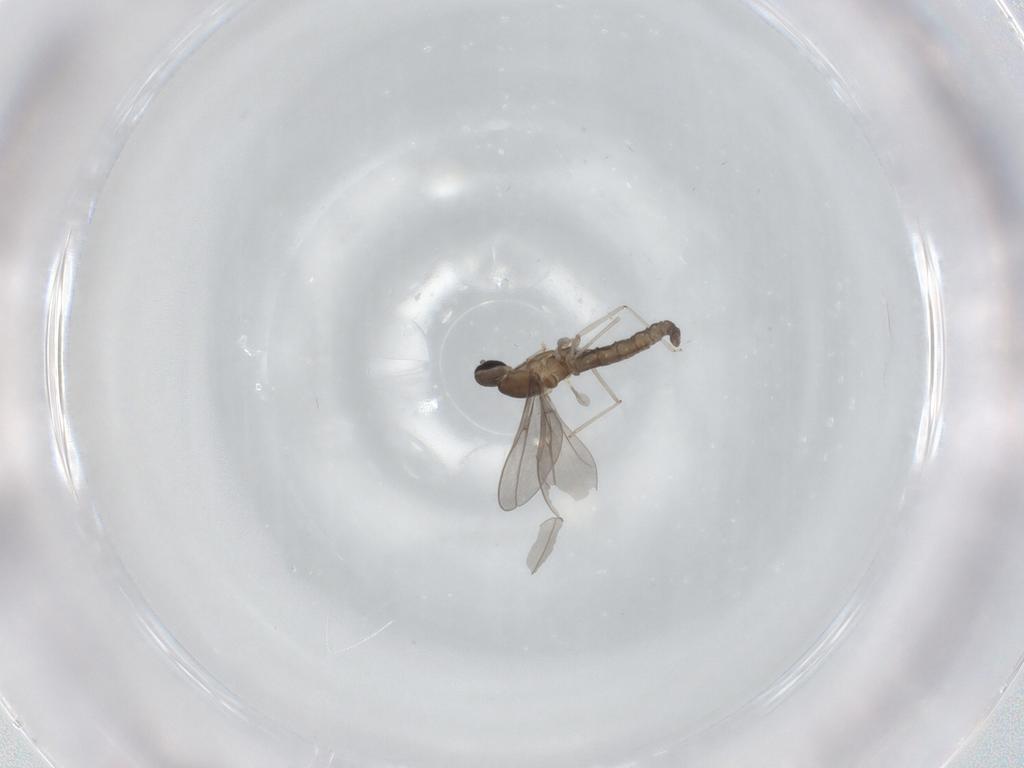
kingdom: Animalia
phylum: Arthropoda
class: Insecta
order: Diptera
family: Cecidomyiidae
